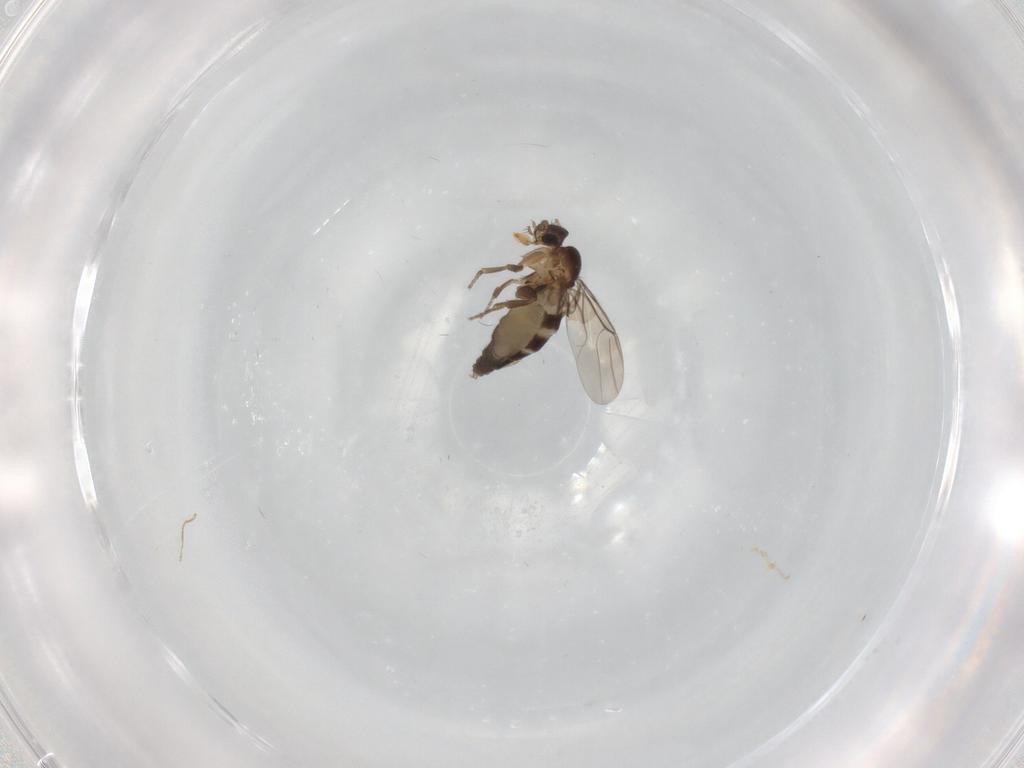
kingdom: Animalia
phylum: Arthropoda
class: Insecta
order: Diptera
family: Phoridae
